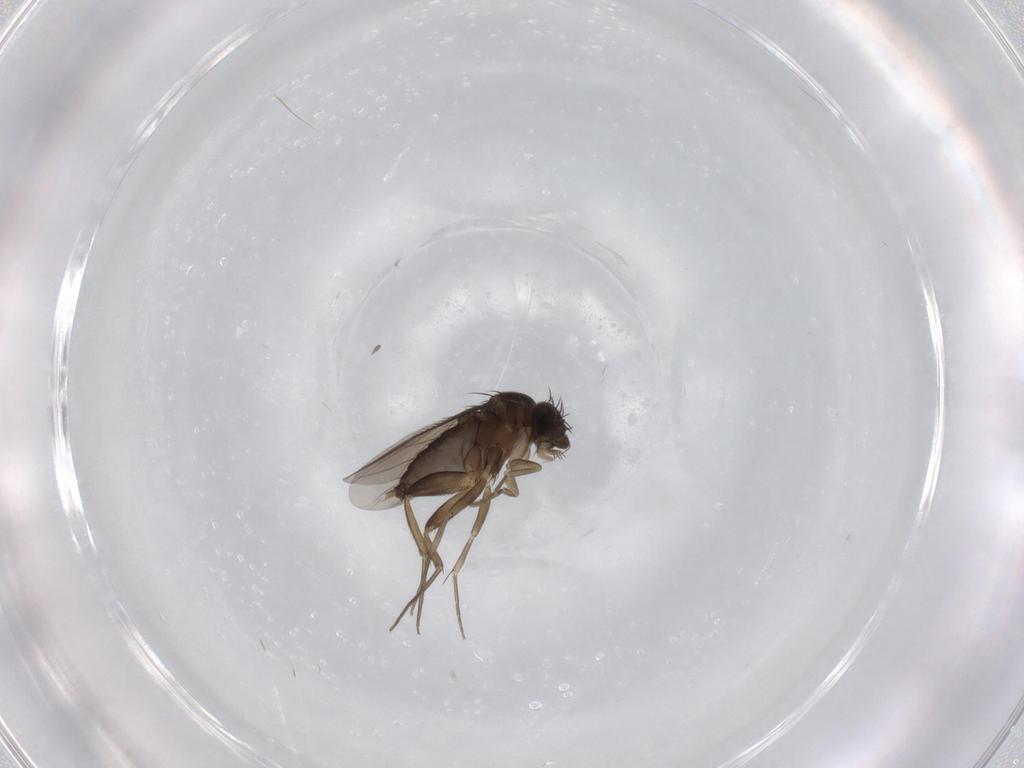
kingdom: Animalia
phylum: Arthropoda
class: Insecta
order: Diptera
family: Phoridae
